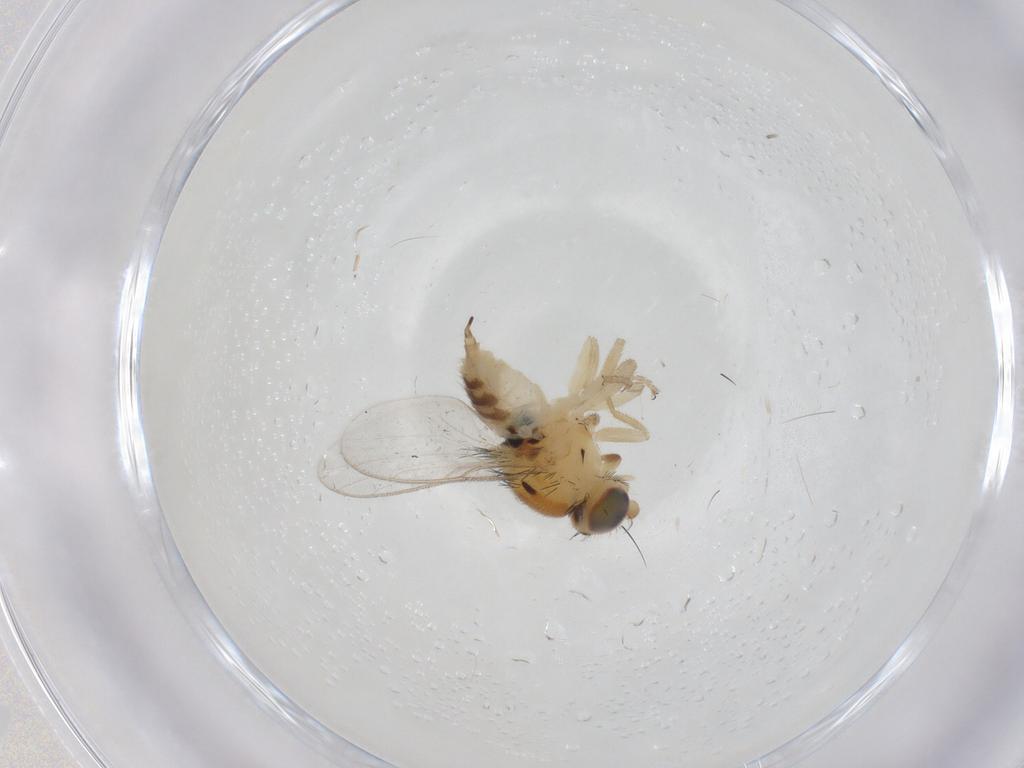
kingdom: Animalia
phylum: Arthropoda
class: Insecta
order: Diptera
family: Chloropidae
